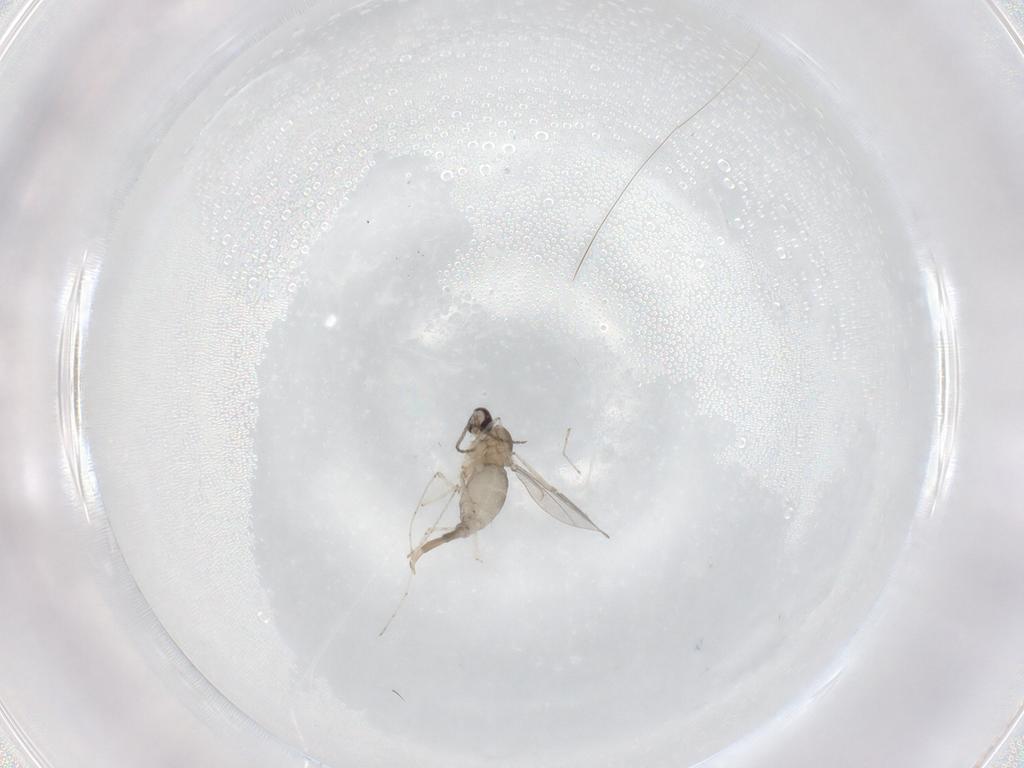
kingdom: Animalia
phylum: Arthropoda
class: Insecta
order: Diptera
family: Cecidomyiidae
